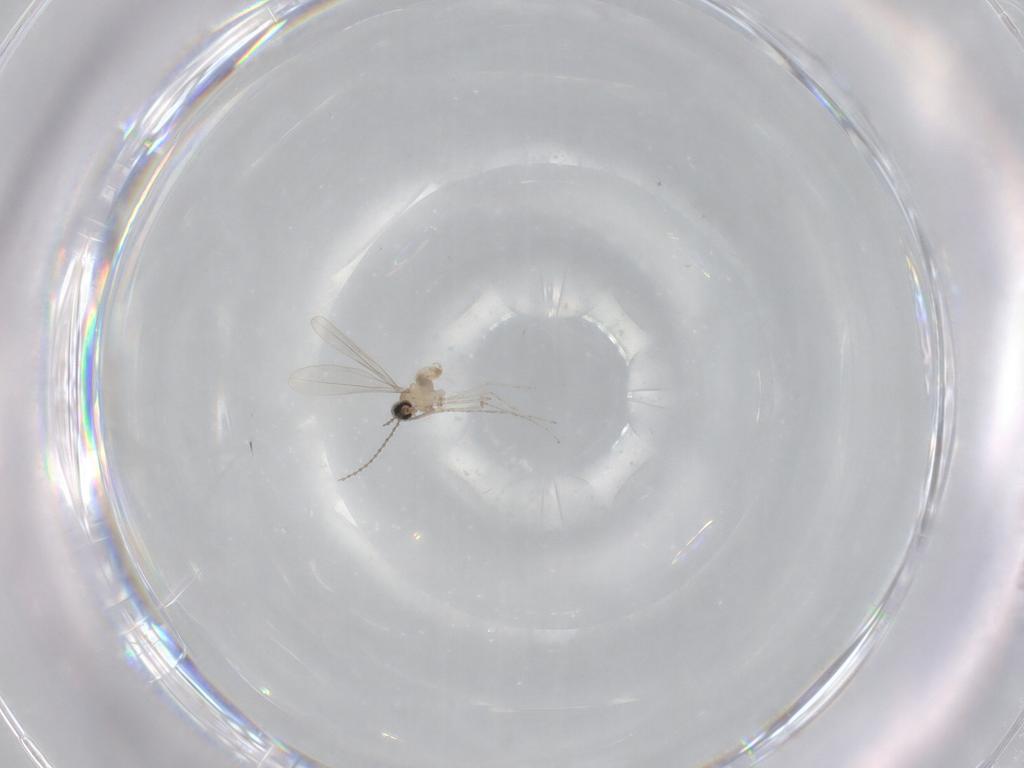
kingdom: Animalia
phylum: Arthropoda
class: Insecta
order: Diptera
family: Cecidomyiidae
